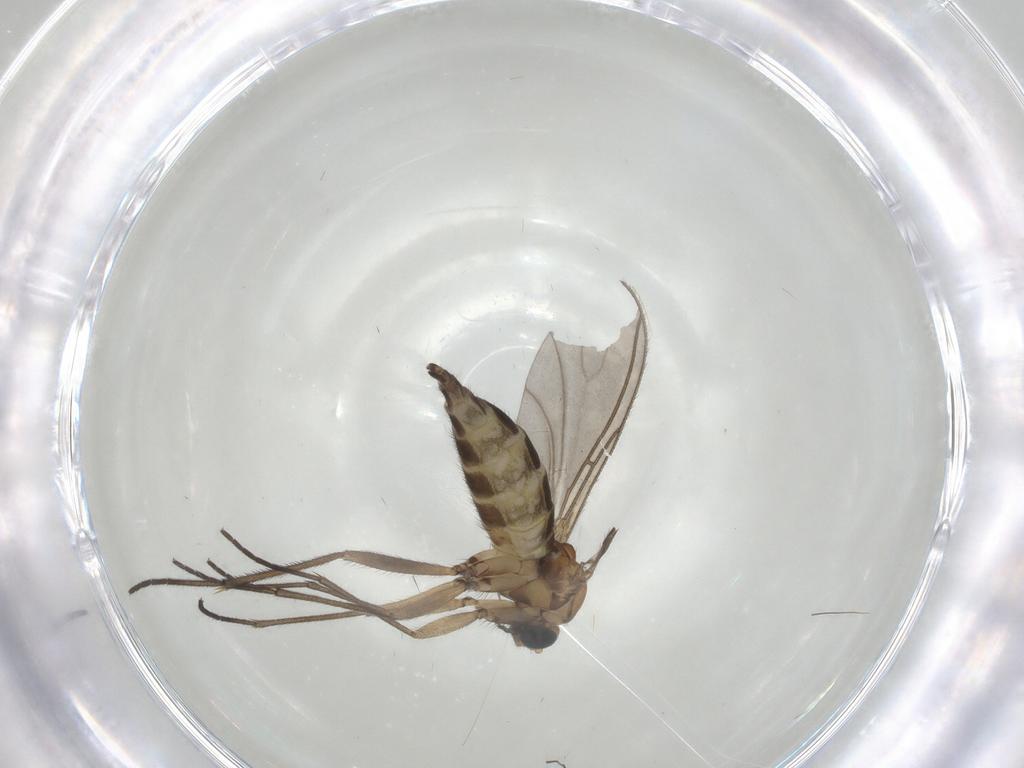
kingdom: Animalia
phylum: Arthropoda
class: Insecta
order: Diptera
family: Sciaridae
